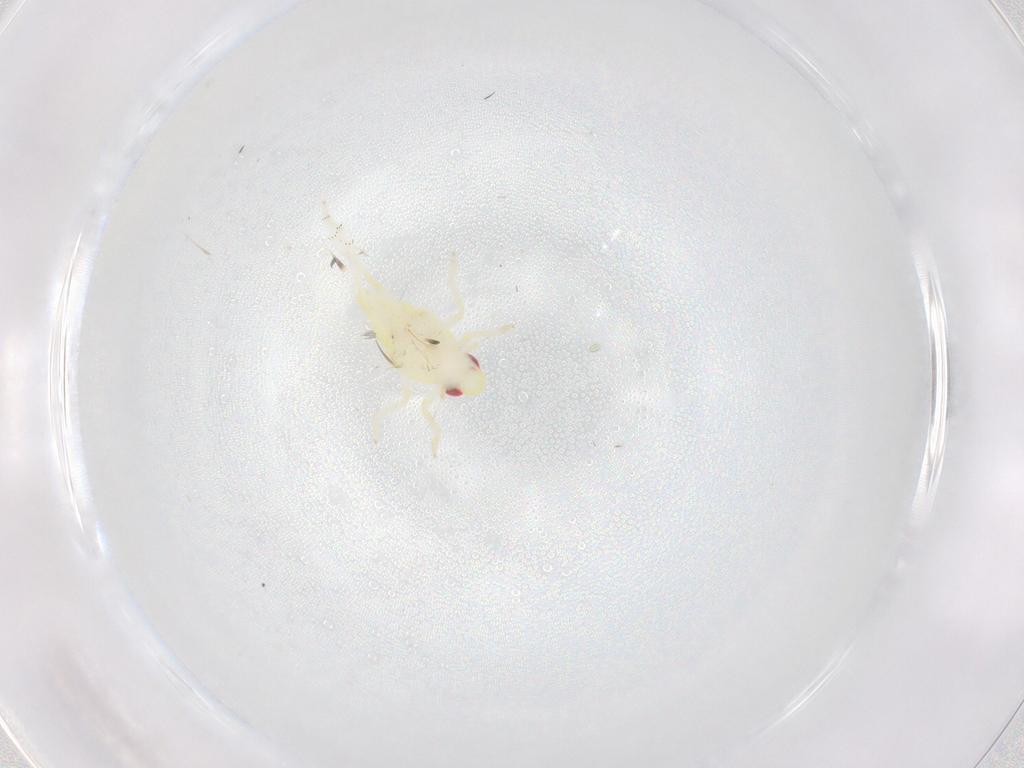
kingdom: Animalia
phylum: Arthropoda
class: Insecta
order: Hemiptera
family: Tropiduchidae
